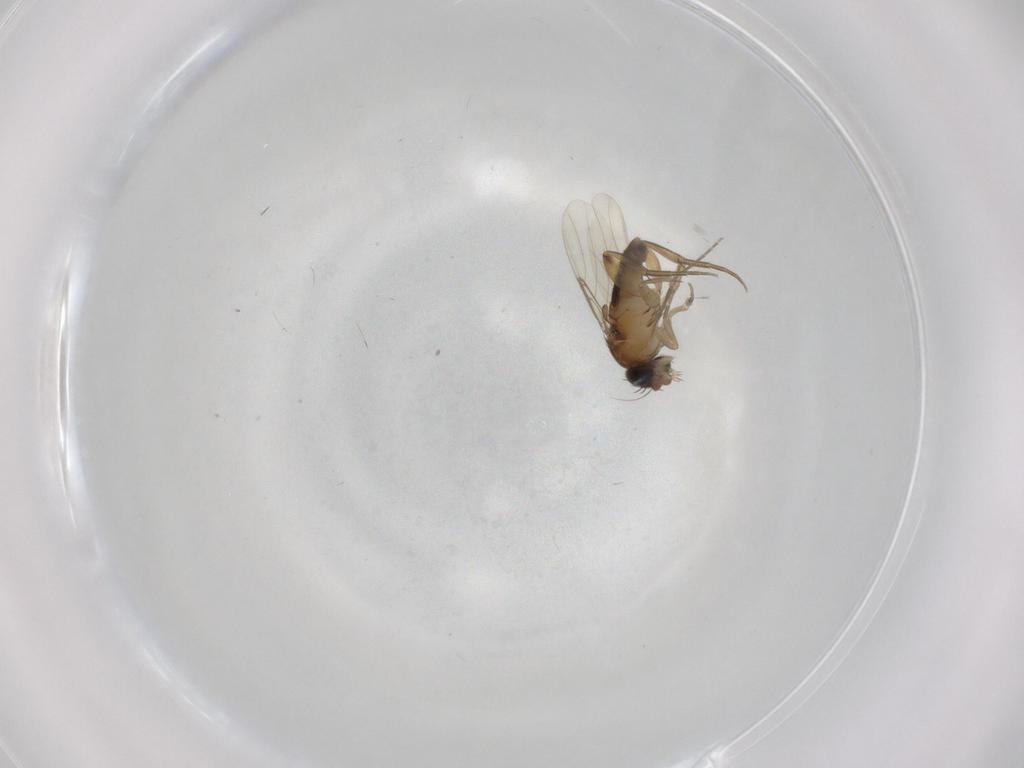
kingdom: Animalia
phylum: Arthropoda
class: Insecta
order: Diptera
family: Phoridae
